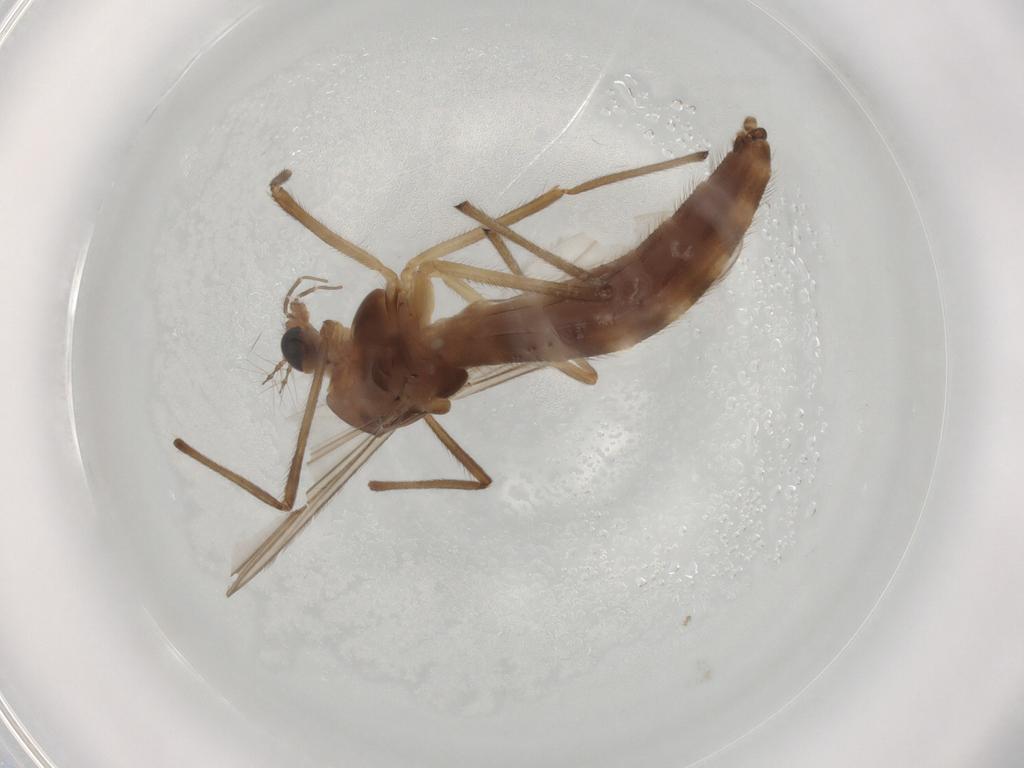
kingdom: Animalia
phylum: Arthropoda
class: Insecta
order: Diptera
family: Chironomidae
